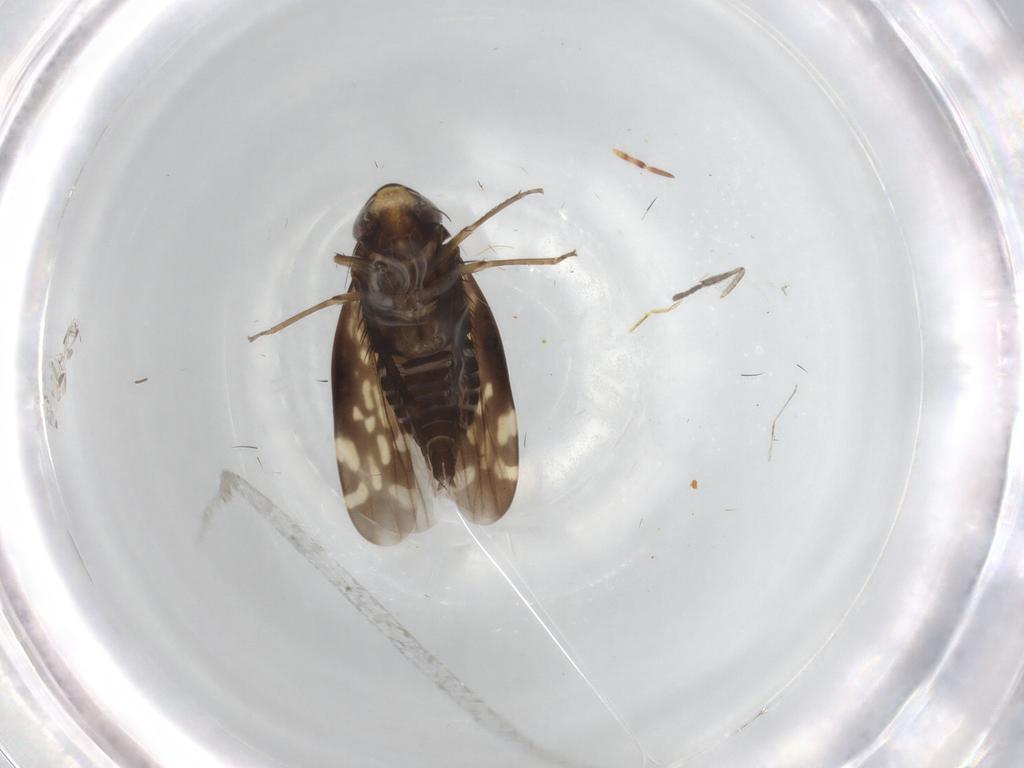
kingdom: Animalia
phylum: Arthropoda
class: Insecta
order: Hemiptera
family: Cicadellidae
